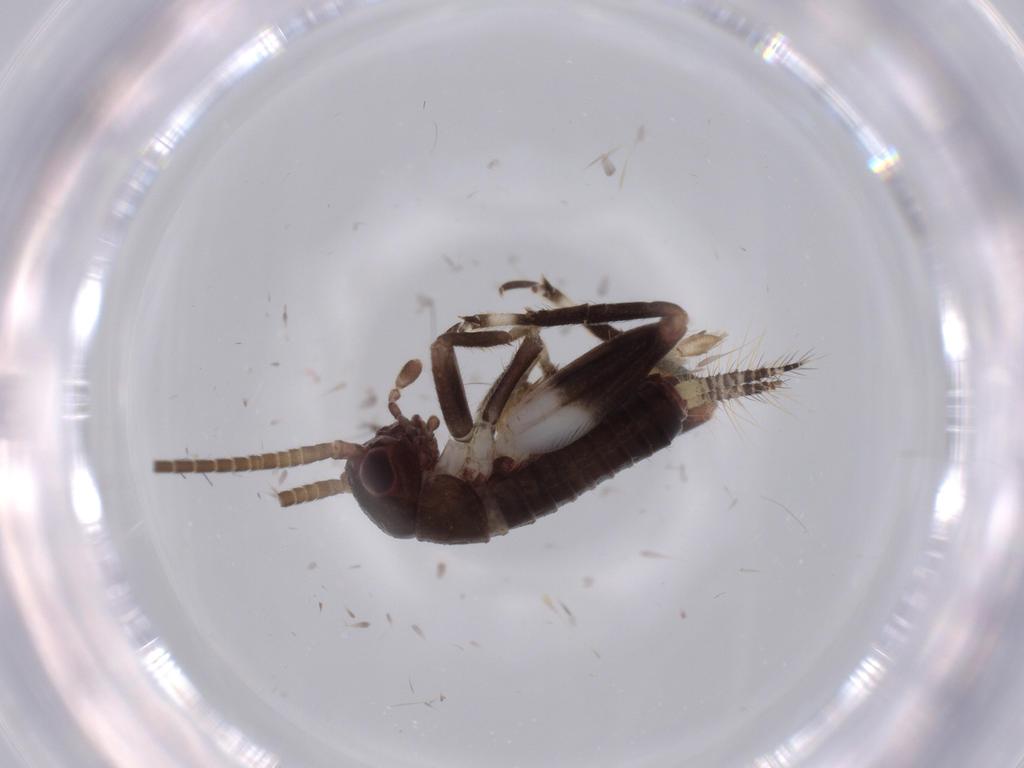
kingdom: Animalia
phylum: Arthropoda
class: Insecta
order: Orthoptera
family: Gryllidae
